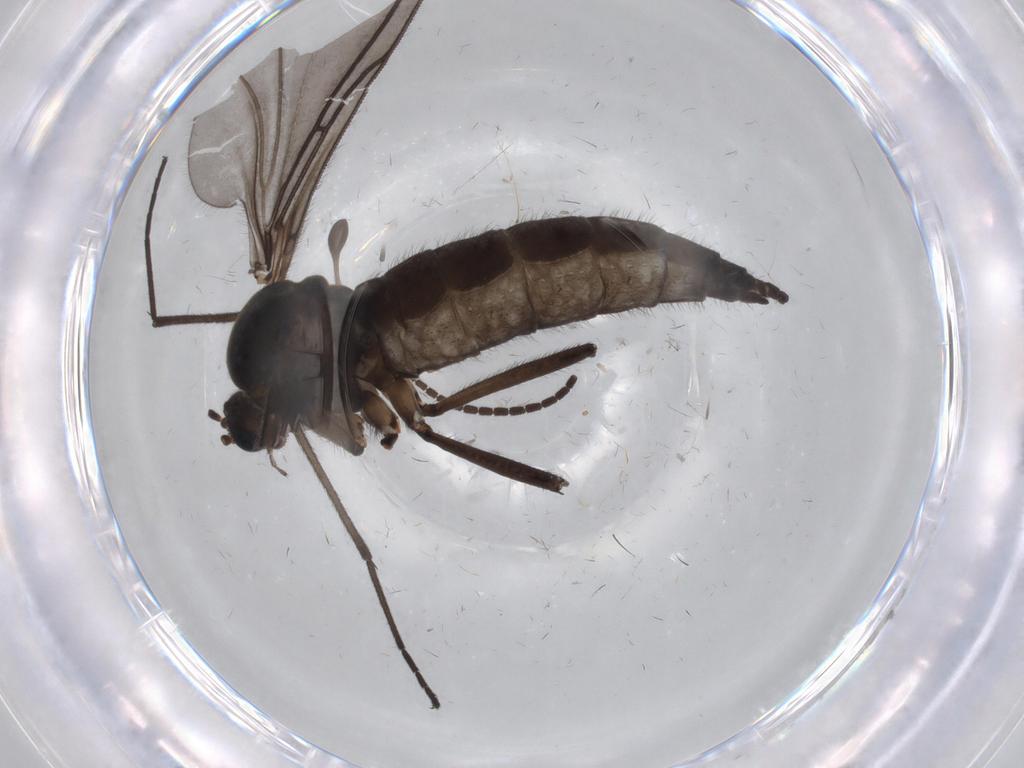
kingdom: Animalia
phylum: Arthropoda
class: Insecta
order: Diptera
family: Sciaridae
